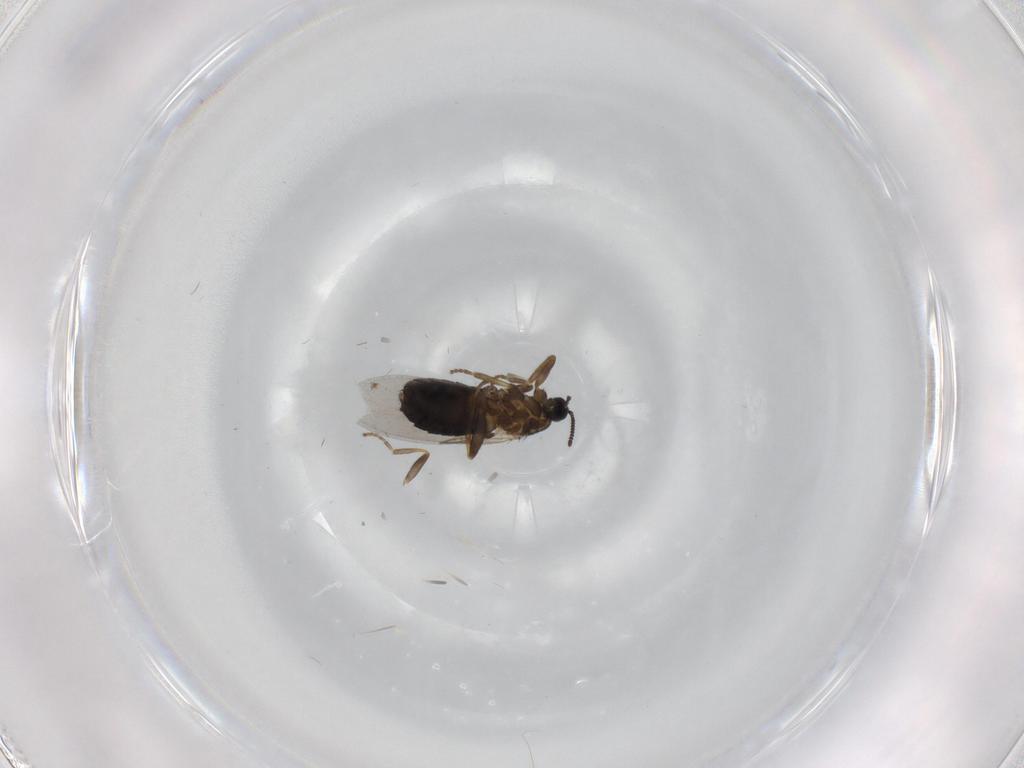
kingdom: Animalia
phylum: Arthropoda
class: Insecta
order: Diptera
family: Scatopsidae
